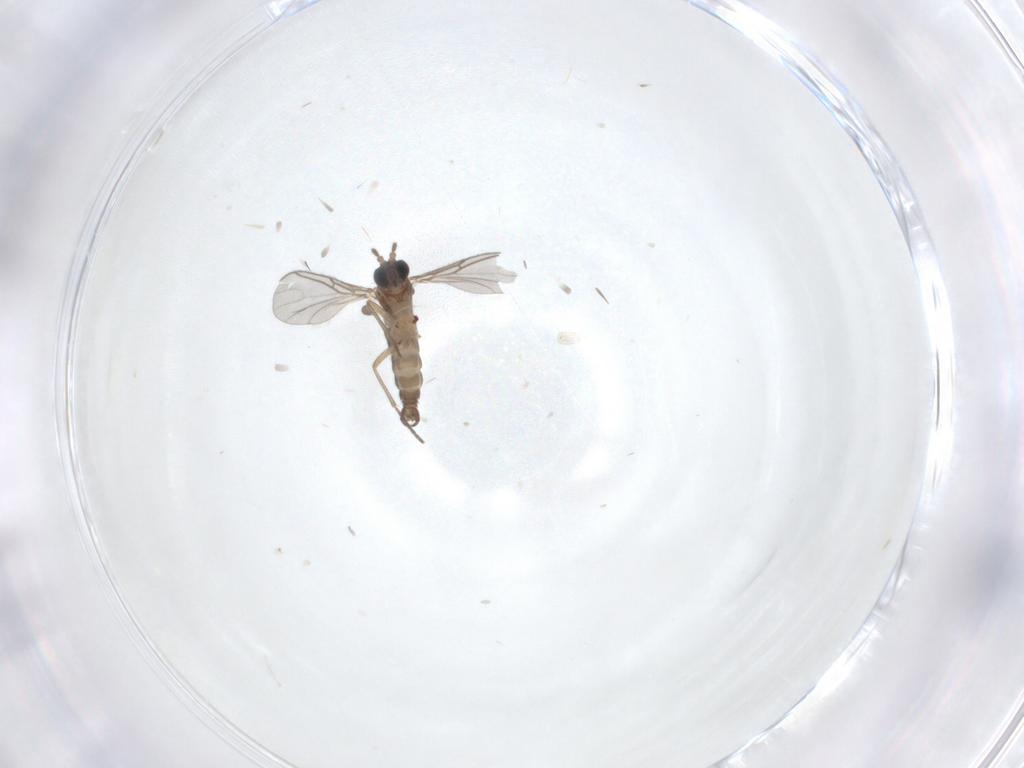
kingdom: Animalia
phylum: Arthropoda
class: Insecta
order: Diptera
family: Sciaridae
